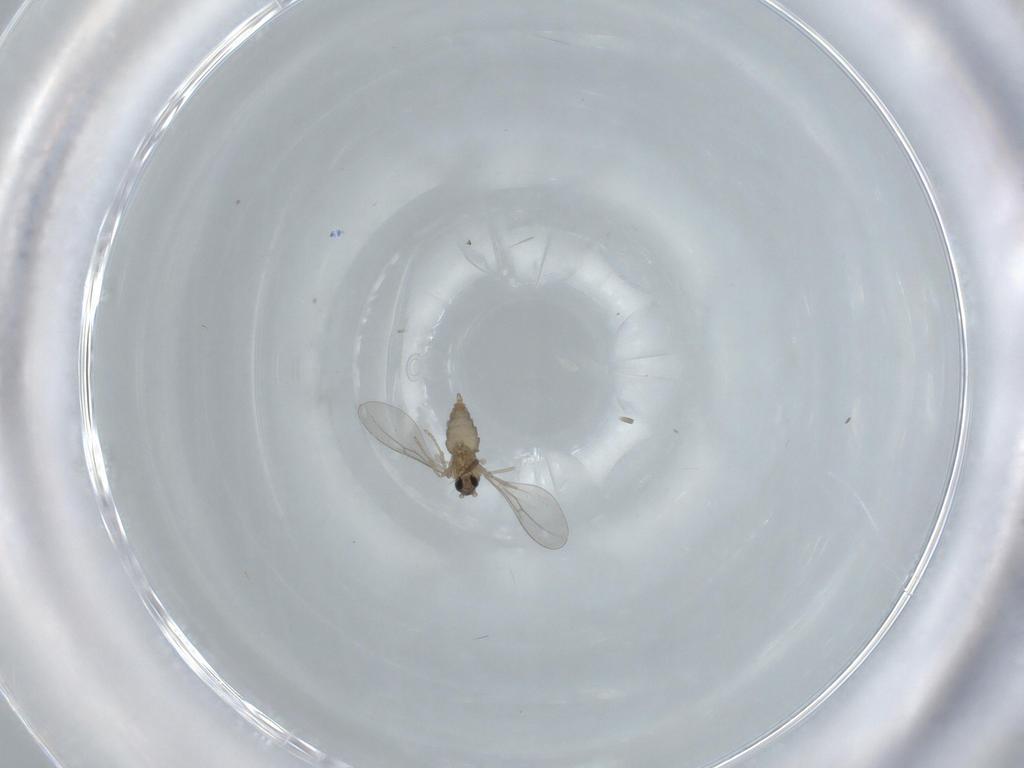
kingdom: Animalia
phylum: Arthropoda
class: Insecta
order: Diptera
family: Cecidomyiidae
